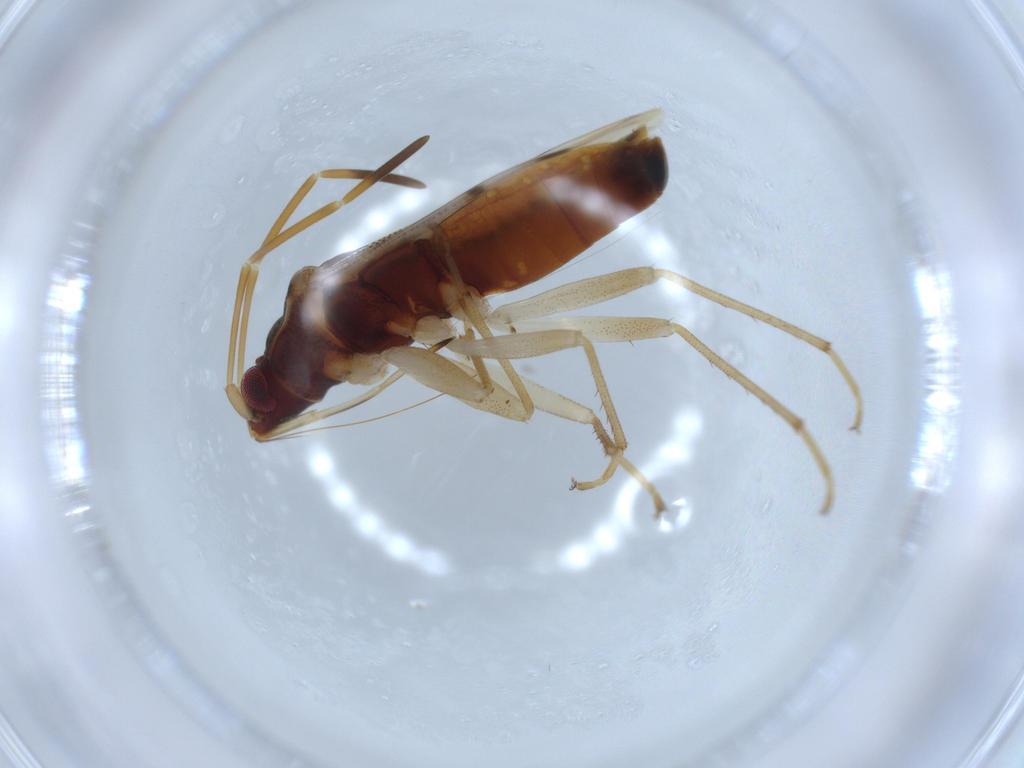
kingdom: Animalia
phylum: Arthropoda
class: Insecta
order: Hemiptera
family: Rhyparochromidae
